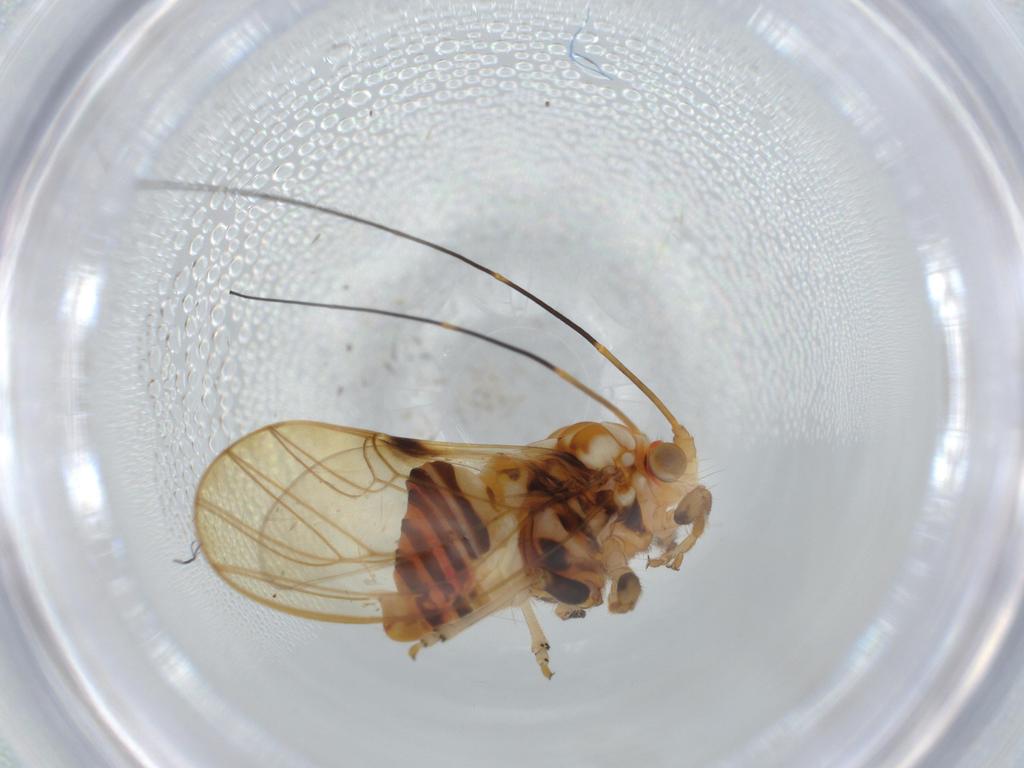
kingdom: Animalia
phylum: Arthropoda
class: Insecta
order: Hemiptera
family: Psyllidae
